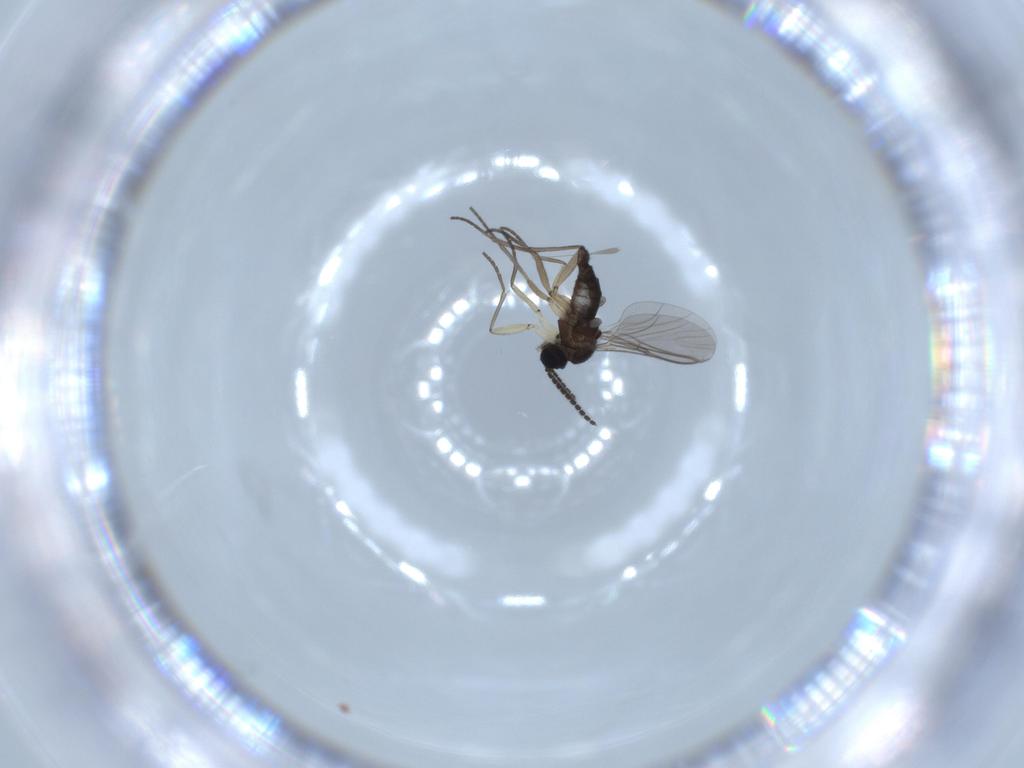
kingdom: Animalia
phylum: Arthropoda
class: Insecta
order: Diptera
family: Sciaridae
